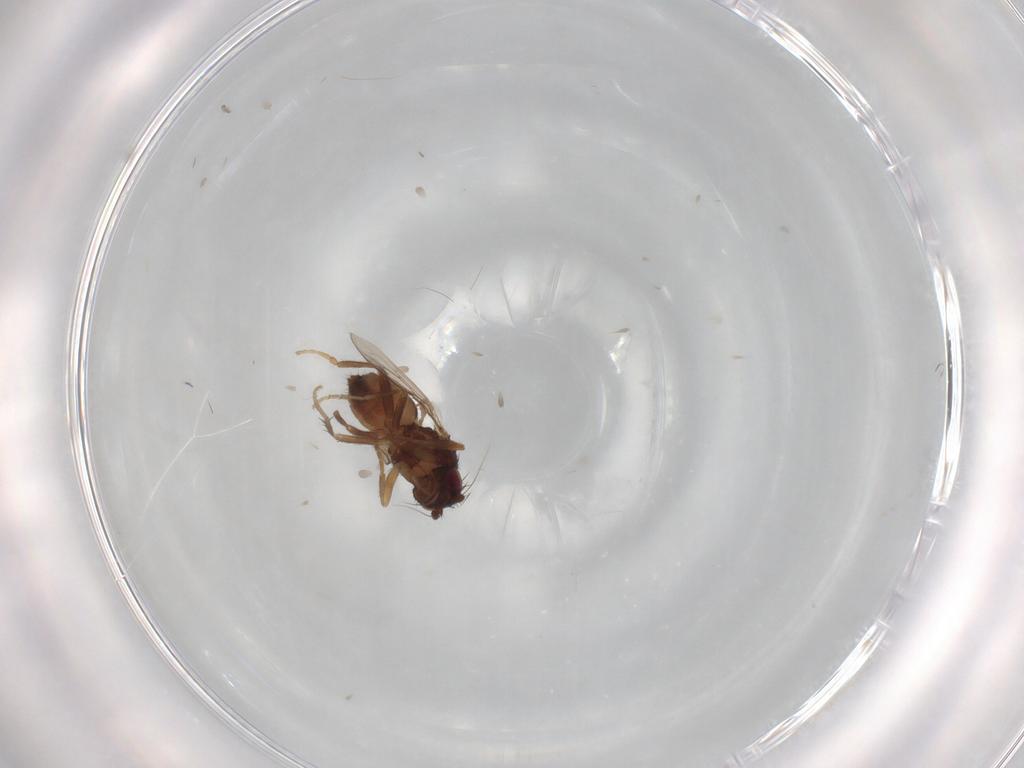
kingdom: Animalia
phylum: Arthropoda
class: Insecta
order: Diptera
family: Sphaeroceridae
